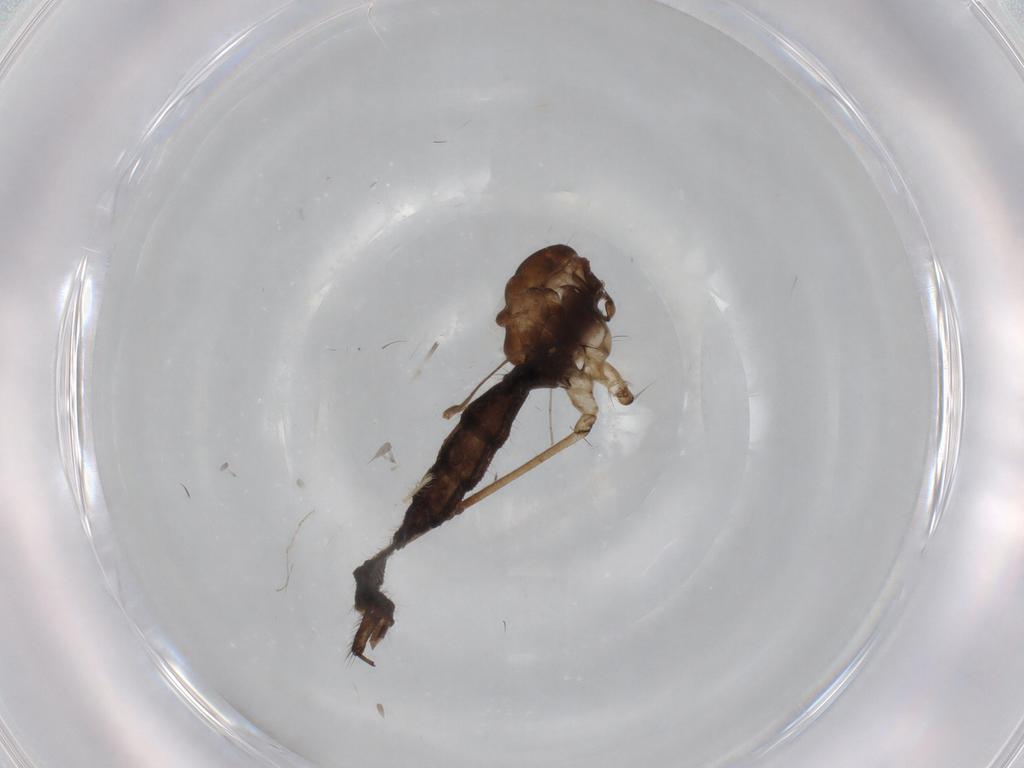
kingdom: Animalia
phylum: Arthropoda
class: Insecta
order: Diptera
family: Limoniidae
